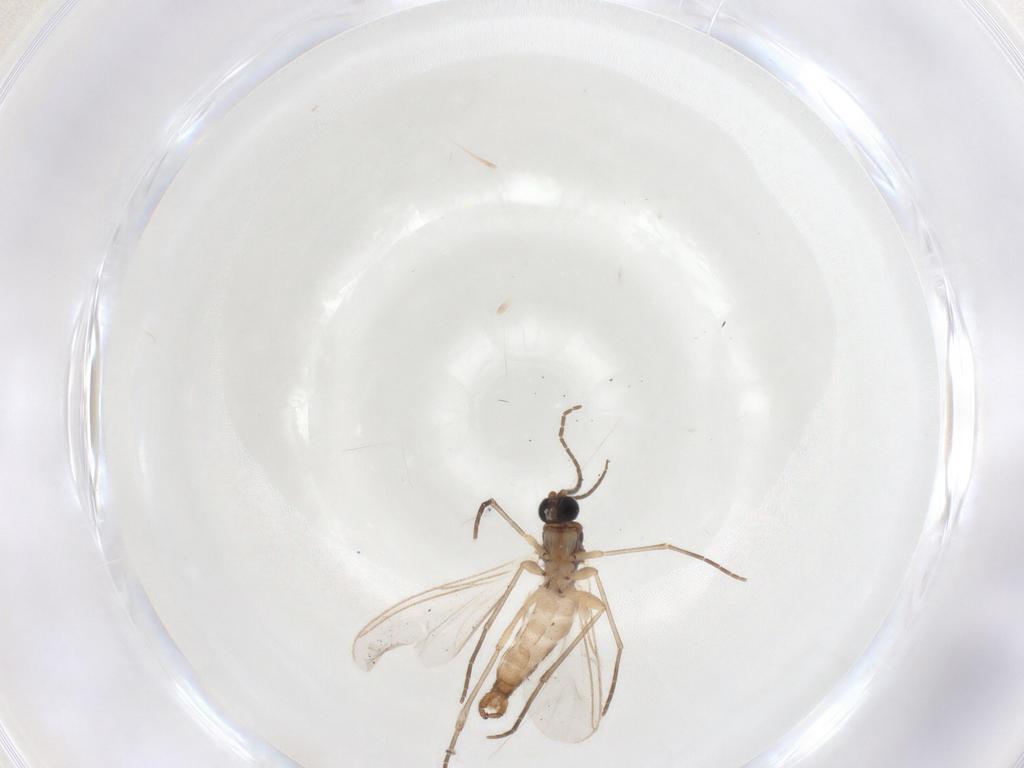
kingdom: Animalia
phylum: Arthropoda
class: Insecta
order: Diptera
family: Sciaridae
